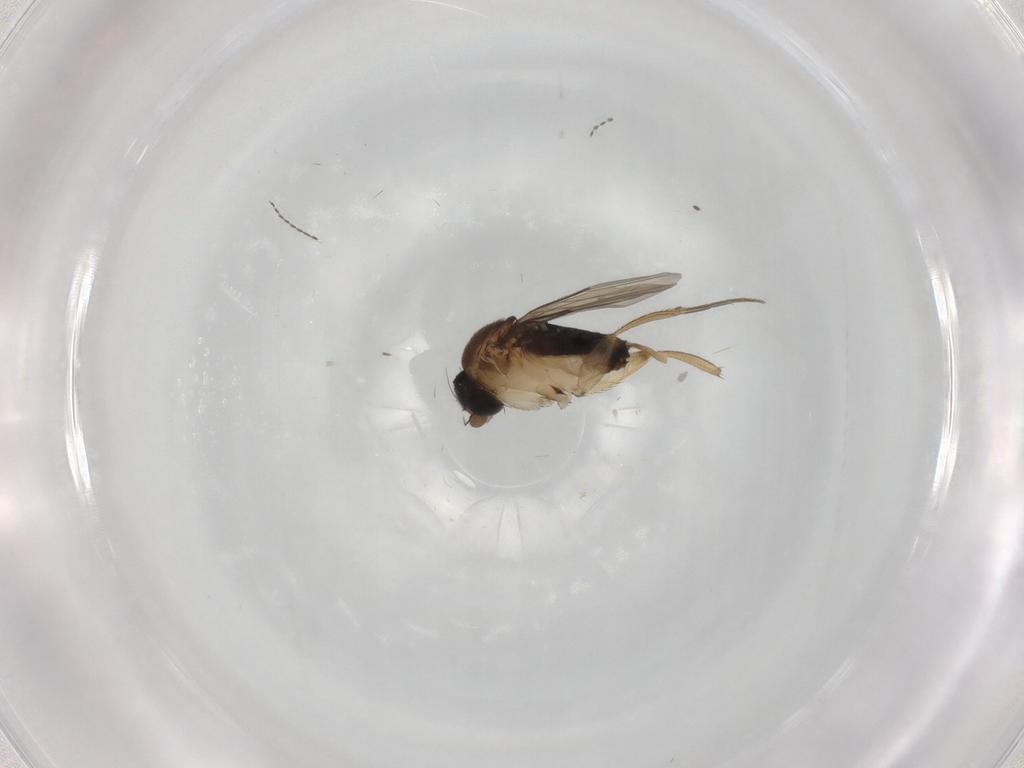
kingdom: Animalia
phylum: Arthropoda
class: Insecta
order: Diptera
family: Phoridae
